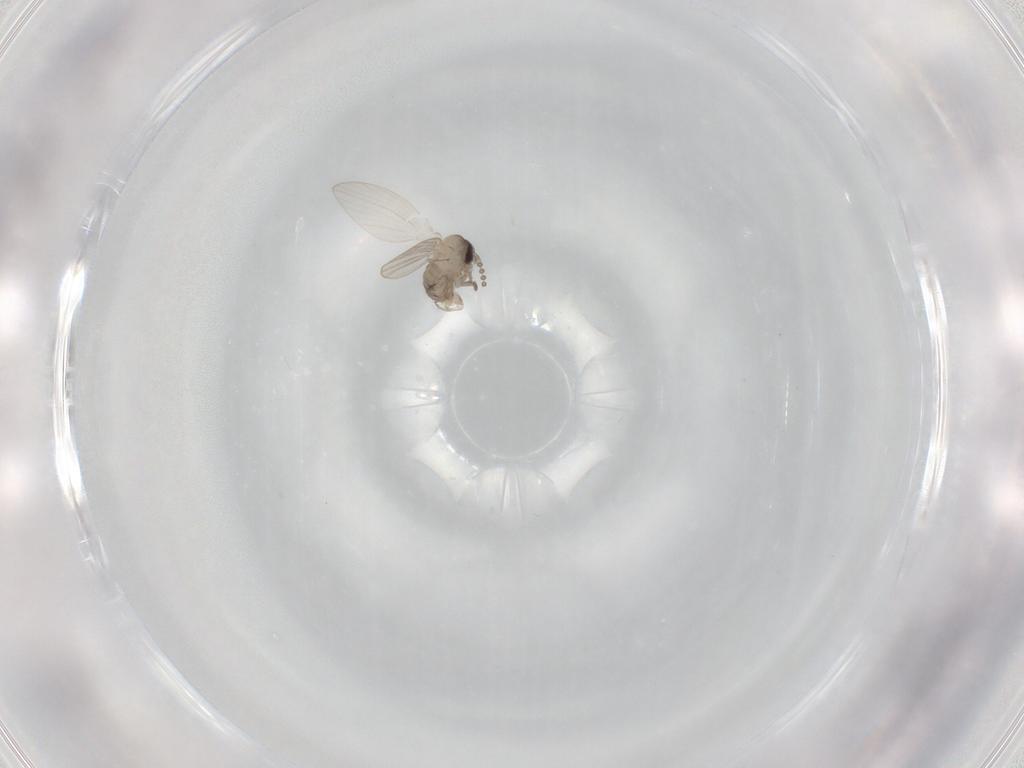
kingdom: Animalia
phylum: Arthropoda
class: Insecta
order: Diptera
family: Psychodidae
